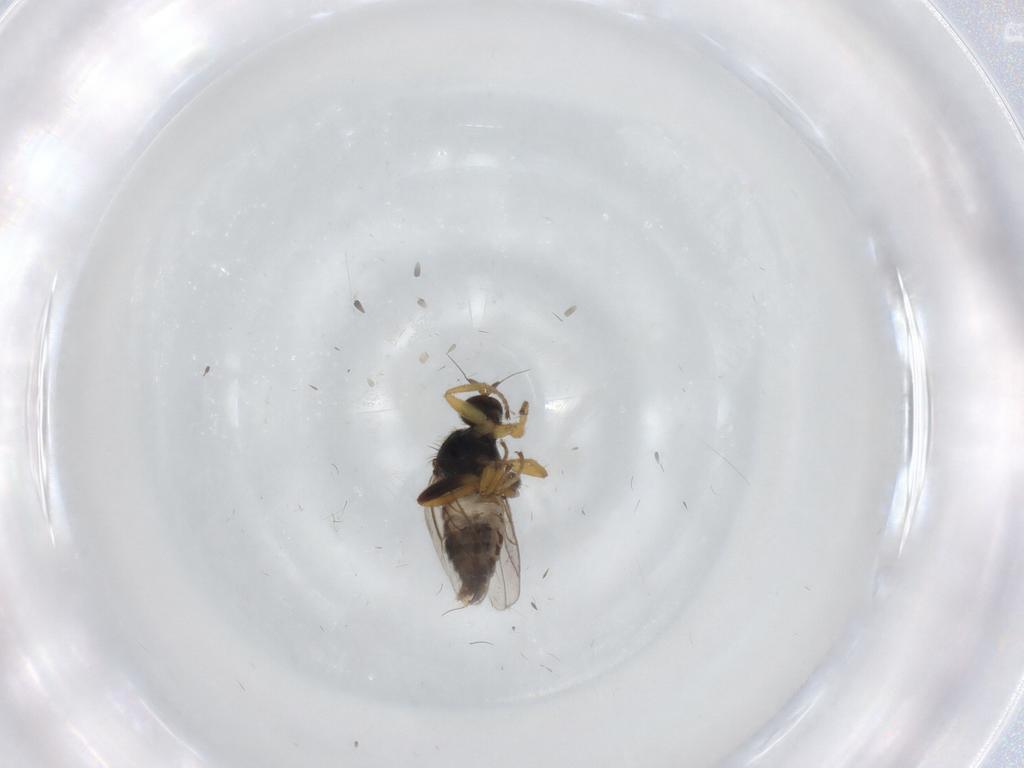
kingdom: Animalia
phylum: Arthropoda
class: Insecta
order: Diptera
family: Hybotidae
